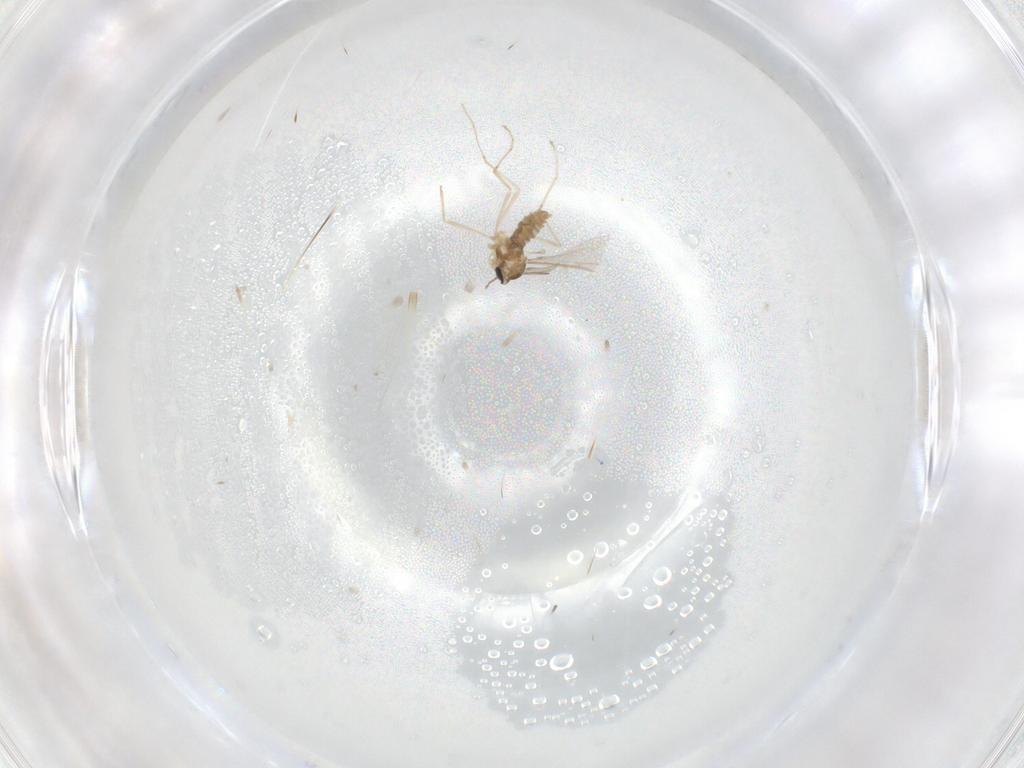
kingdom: Animalia
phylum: Arthropoda
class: Insecta
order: Diptera
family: Cecidomyiidae
